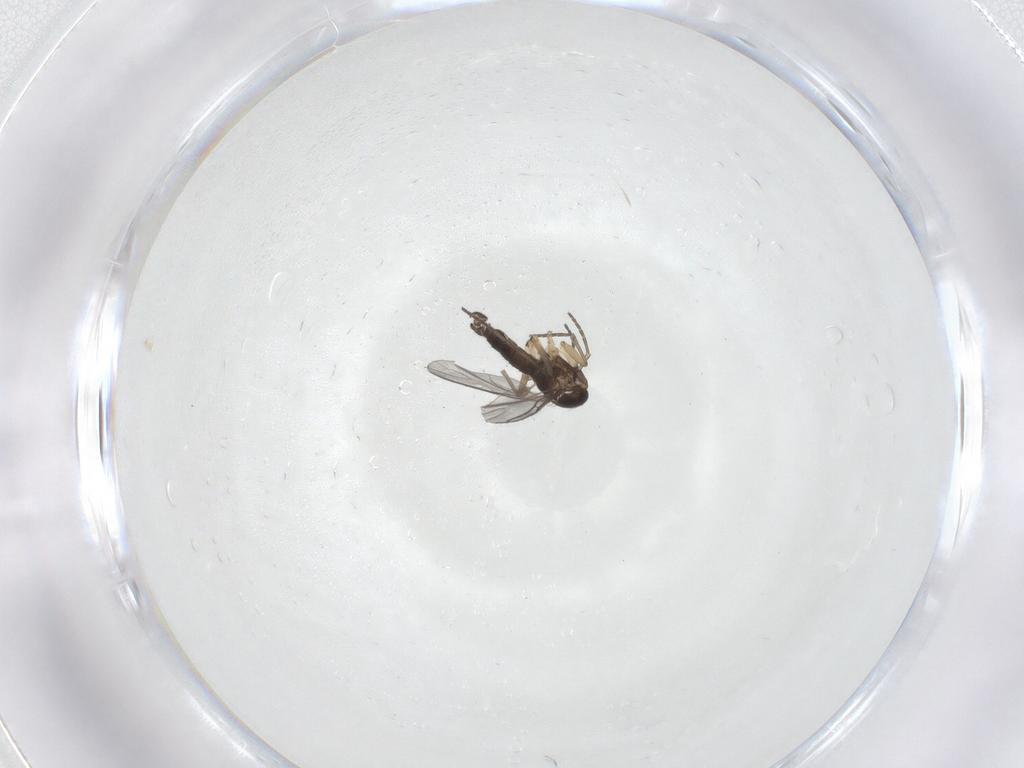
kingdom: Animalia
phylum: Arthropoda
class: Insecta
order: Diptera
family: Sciaridae
